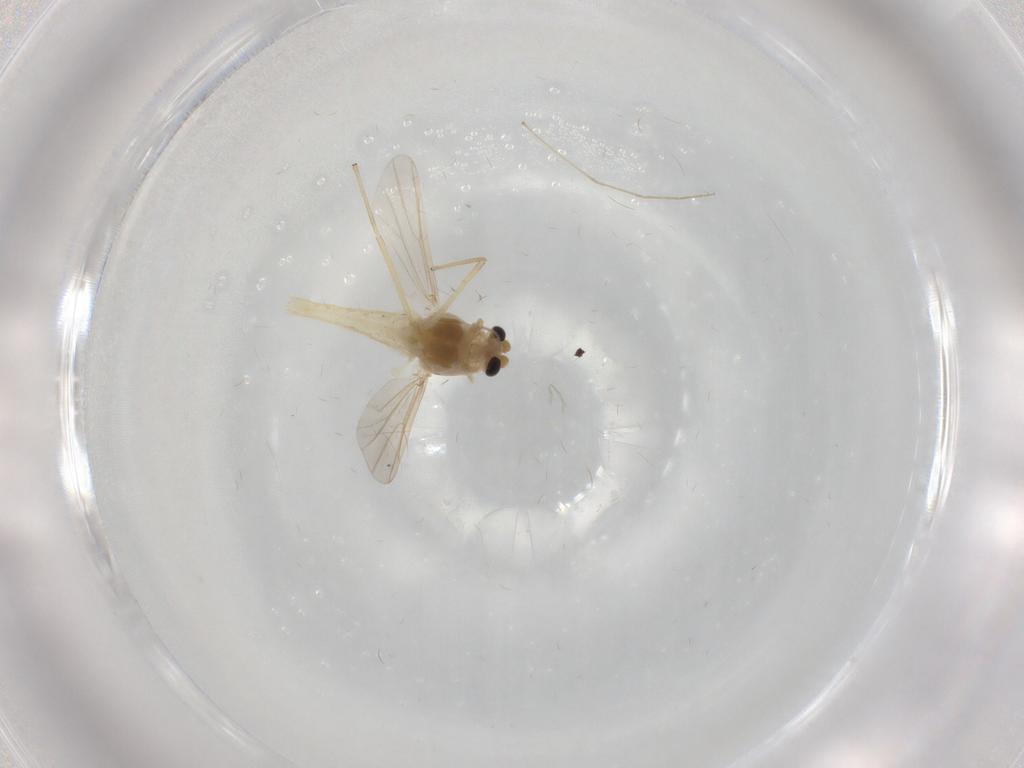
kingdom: Animalia
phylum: Arthropoda
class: Insecta
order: Diptera
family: Chironomidae
